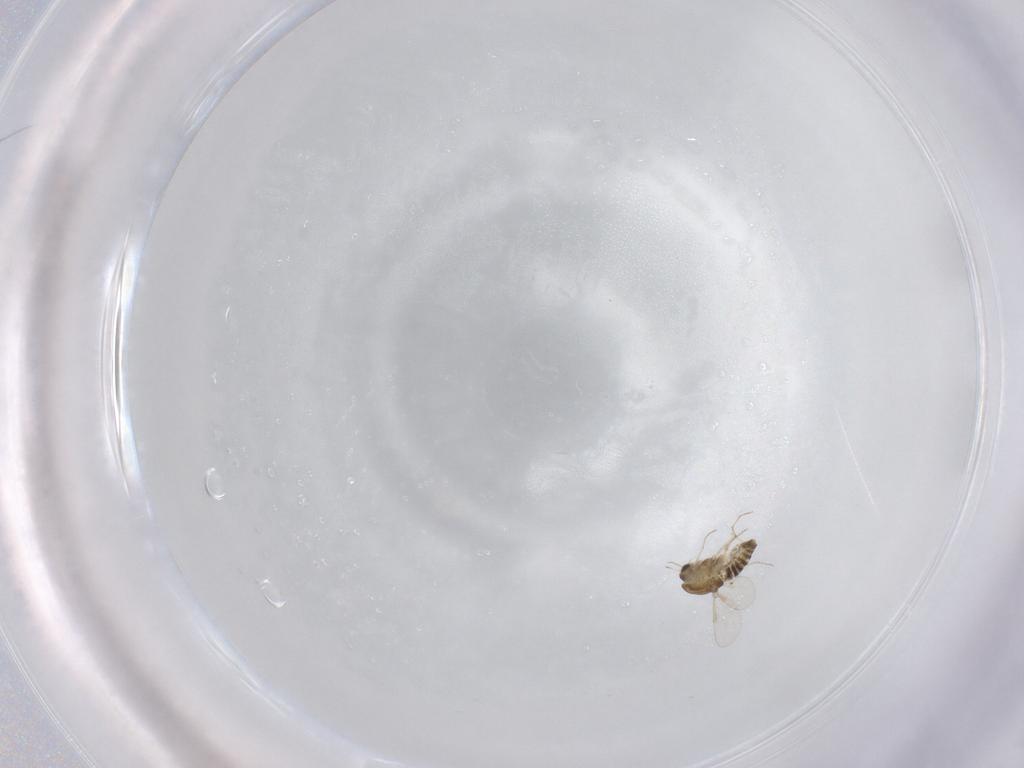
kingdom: Animalia
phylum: Arthropoda
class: Insecta
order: Diptera
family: Chironomidae
